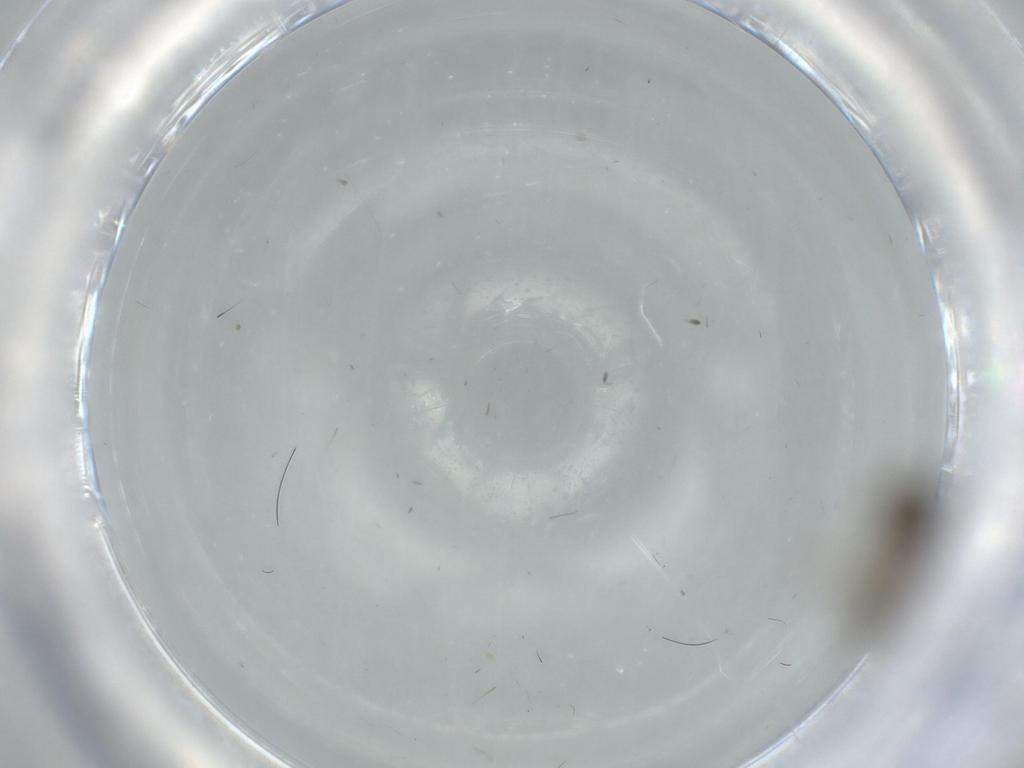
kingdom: Animalia
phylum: Arthropoda
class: Insecta
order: Psocodea
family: Caeciliusidae
